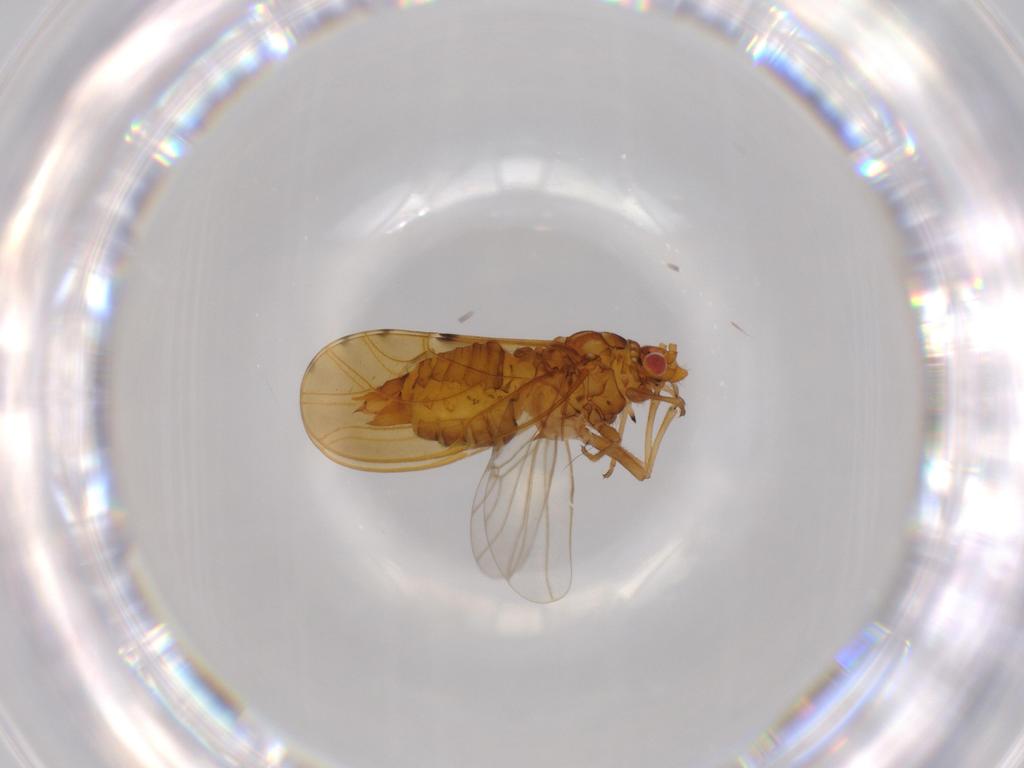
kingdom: Animalia
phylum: Arthropoda
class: Insecta
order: Hemiptera
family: Psylloidea_incertae_sedis
